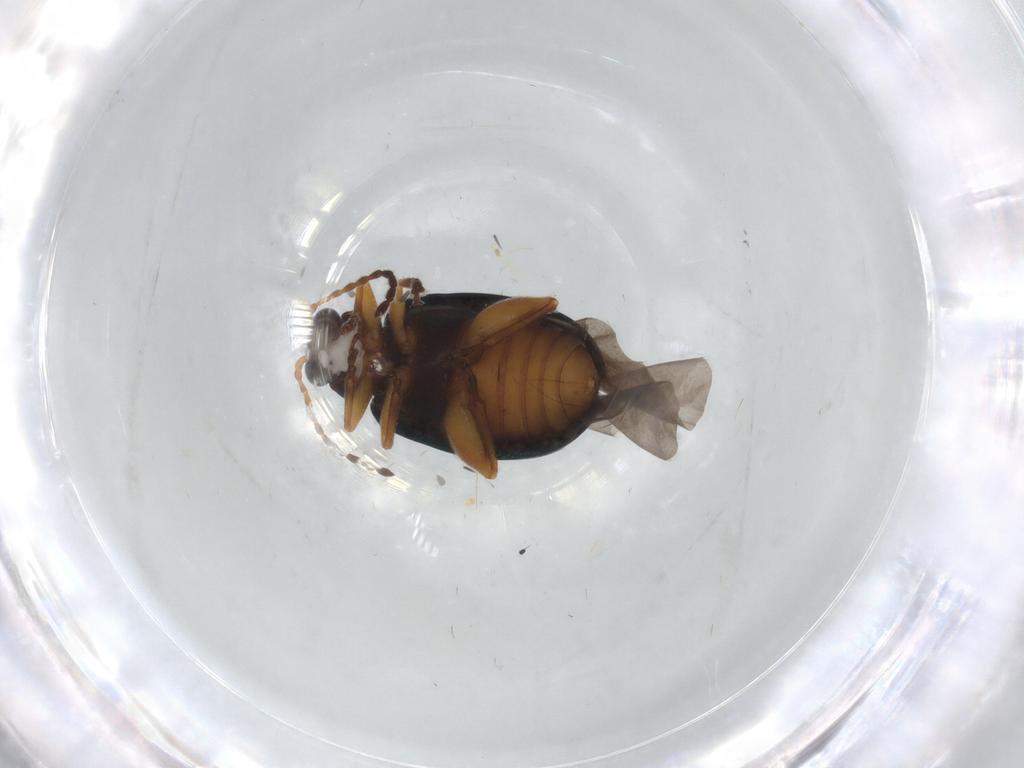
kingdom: Animalia
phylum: Arthropoda
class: Insecta
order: Coleoptera
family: Chrysomelidae
